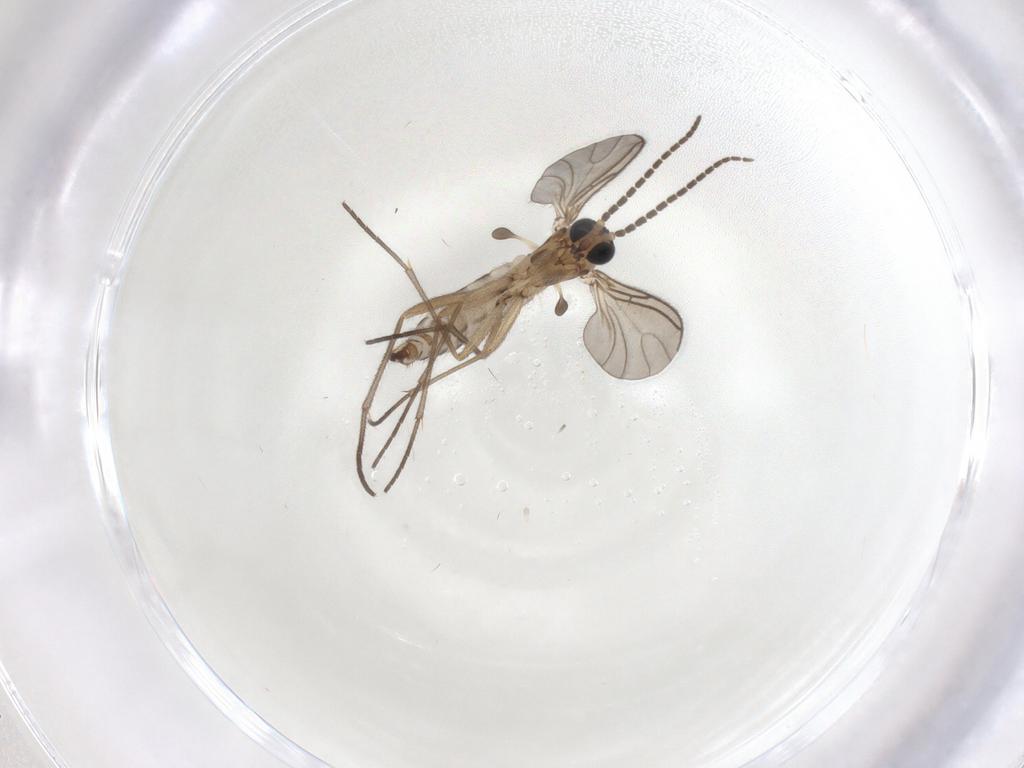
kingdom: Animalia
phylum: Arthropoda
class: Insecta
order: Diptera
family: Sciaridae
